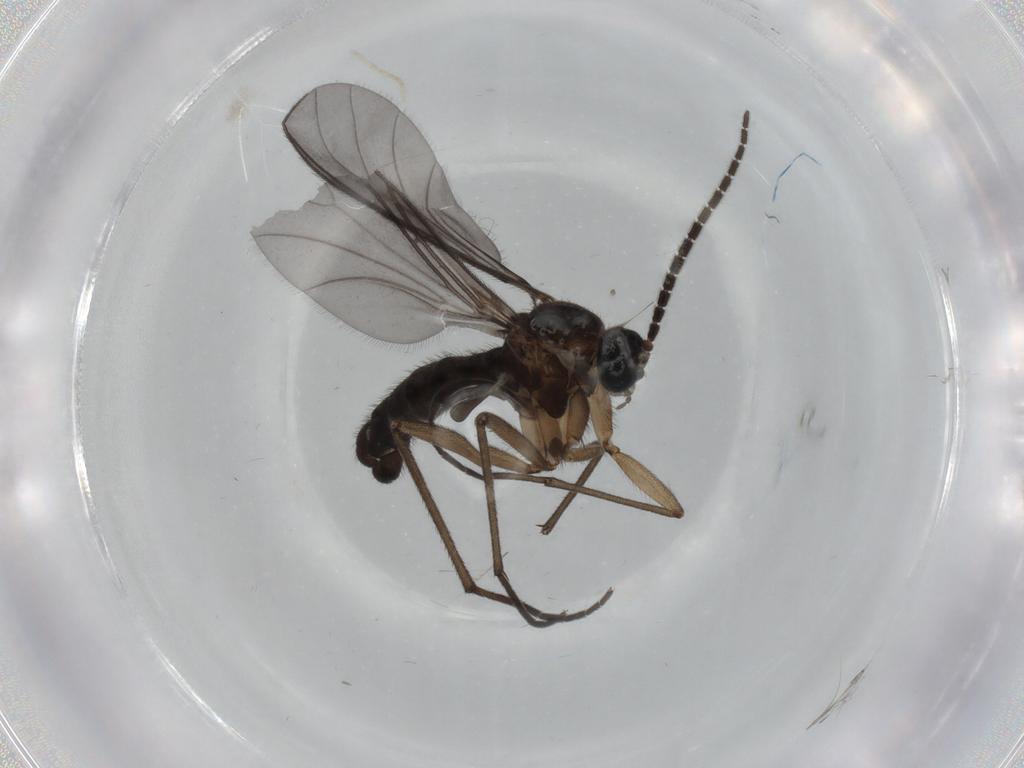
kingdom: Animalia
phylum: Arthropoda
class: Insecta
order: Diptera
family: Sciaridae
